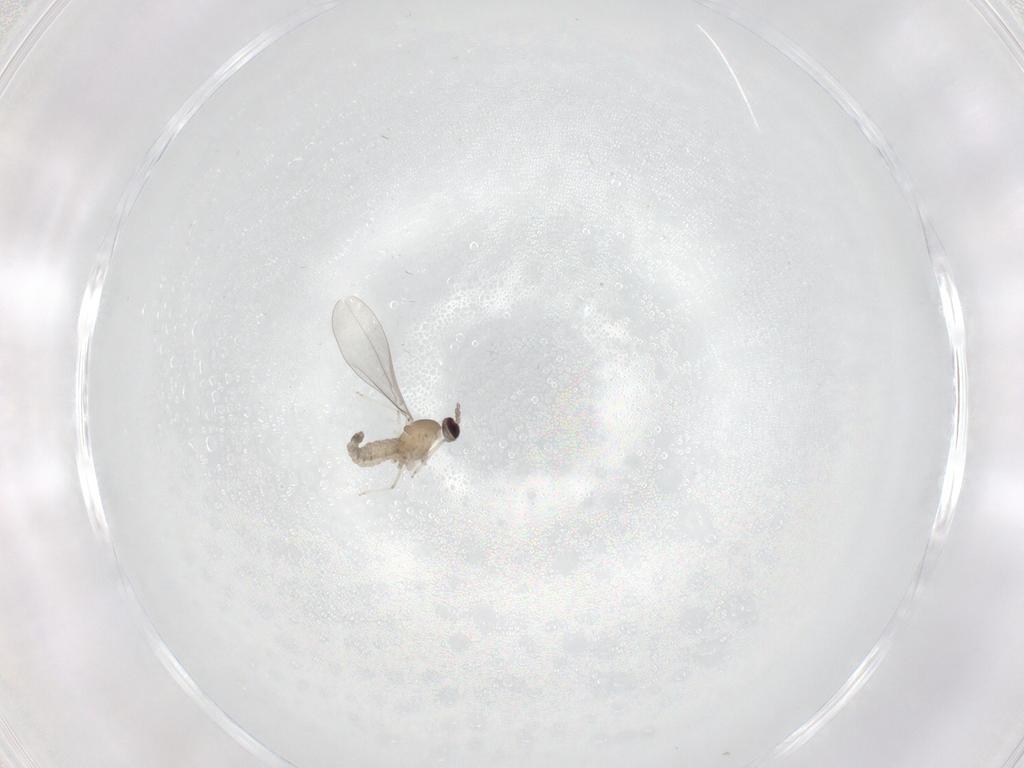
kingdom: Animalia
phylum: Arthropoda
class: Insecta
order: Diptera
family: Cecidomyiidae
